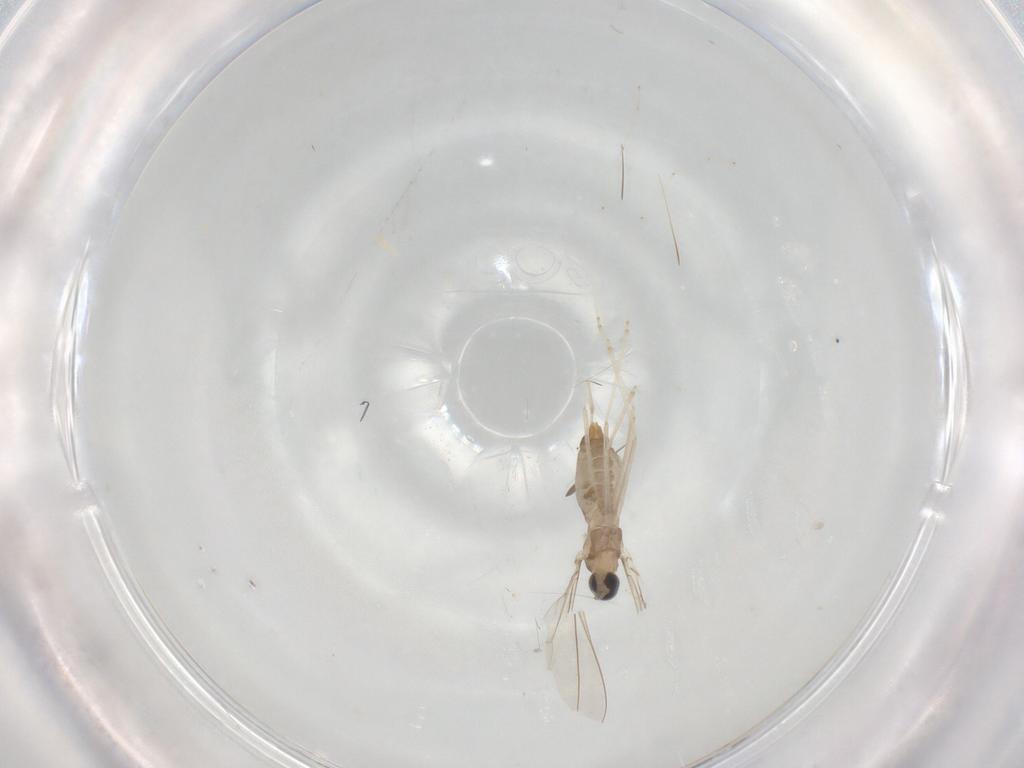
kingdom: Animalia
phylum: Arthropoda
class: Insecta
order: Diptera
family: Cecidomyiidae
